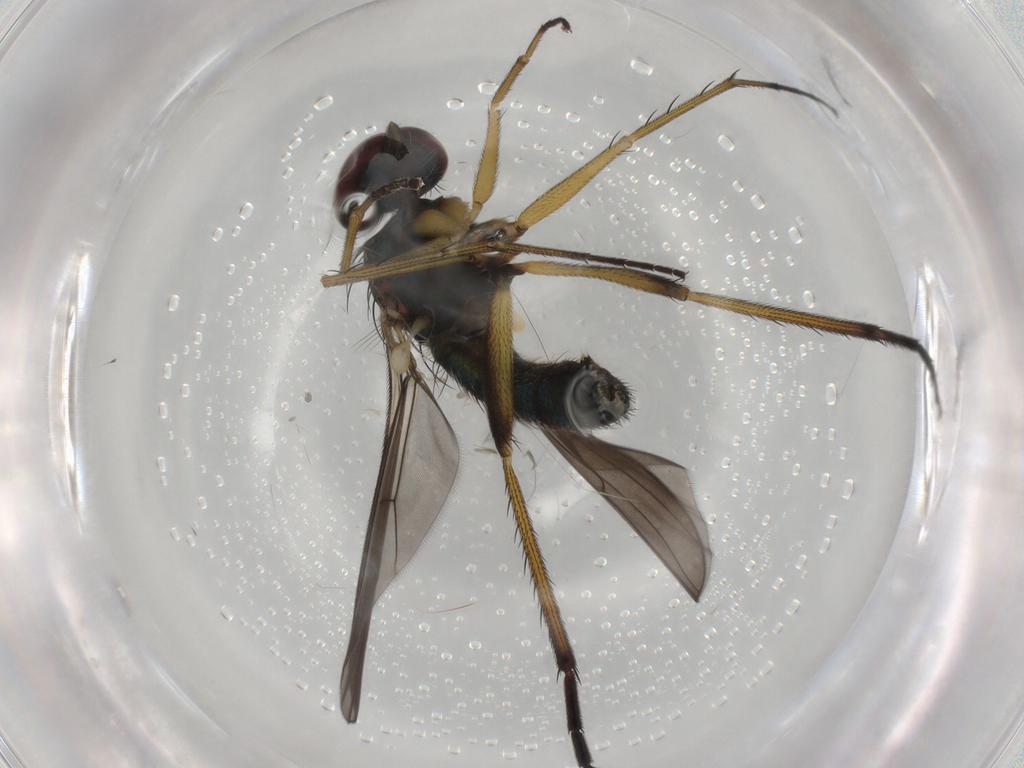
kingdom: Animalia
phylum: Arthropoda
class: Insecta
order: Diptera
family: Dolichopodidae
